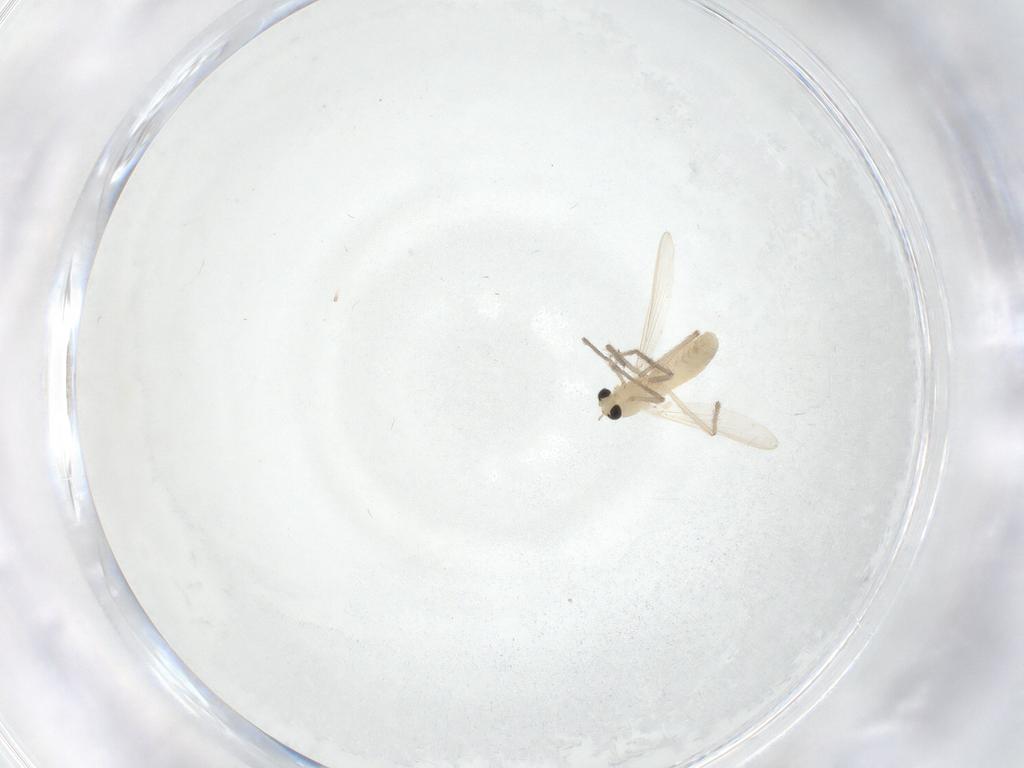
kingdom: Animalia
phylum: Arthropoda
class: Insecta
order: Diptera
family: Chironomidae
